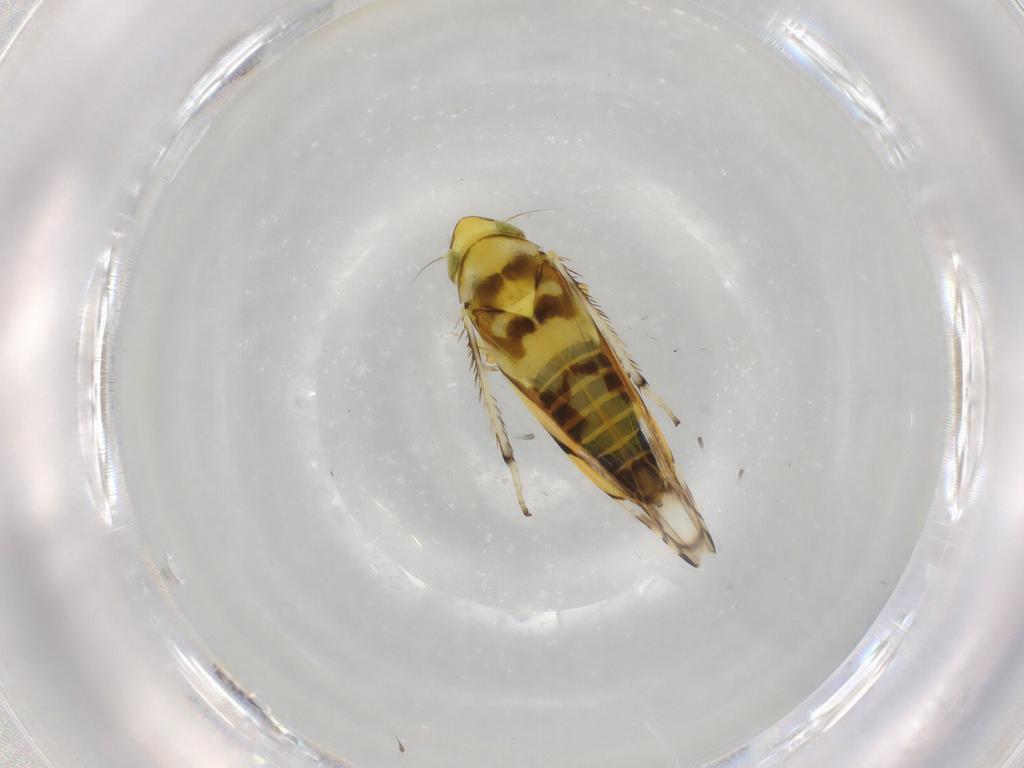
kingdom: Animalia
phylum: Arthropoda
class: Insecta
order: Hemiptera
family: Cicadellidae
